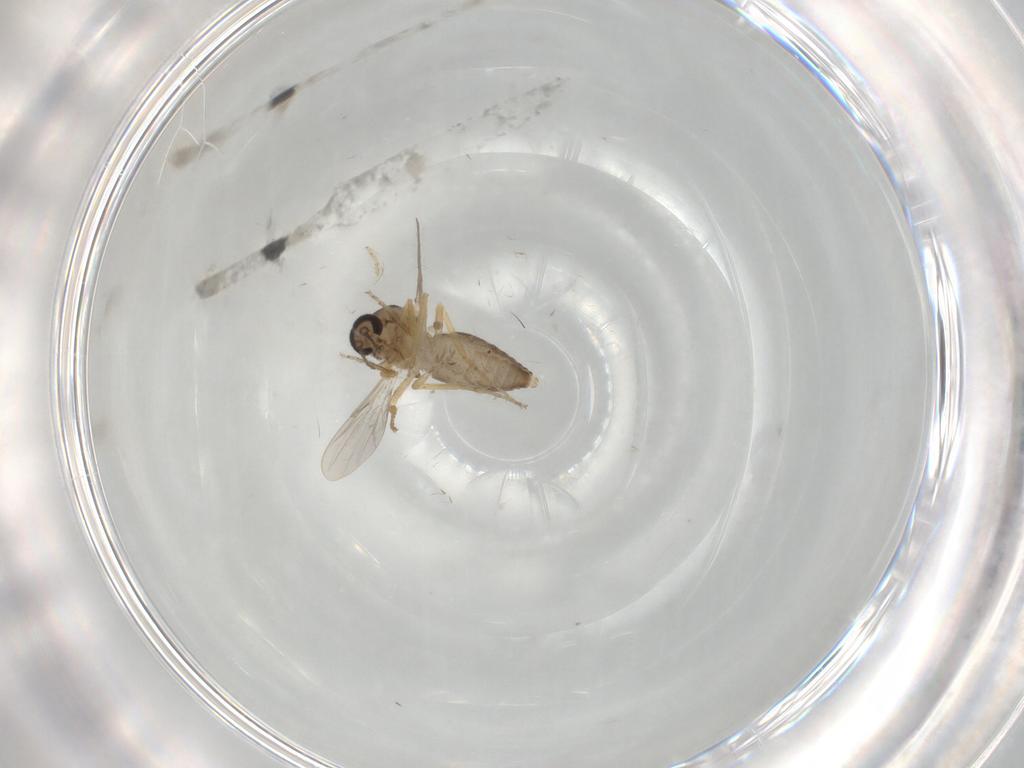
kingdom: Animalia
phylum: Arthropoda
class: Insecta
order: Diptera
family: Ceratopogonidae
